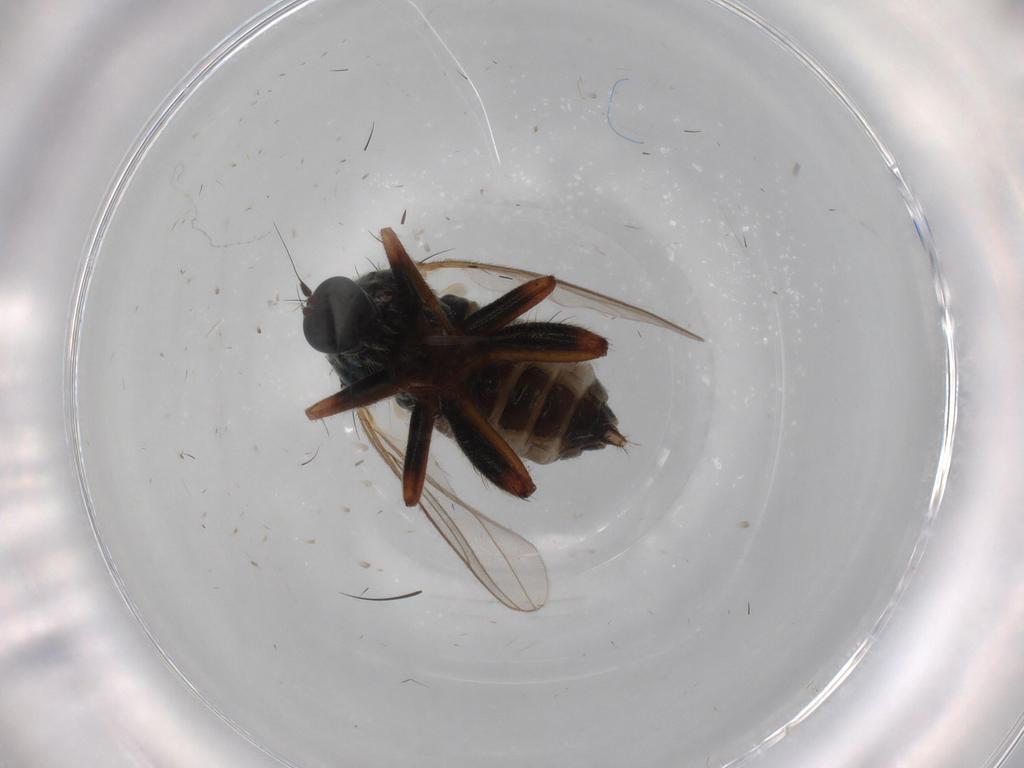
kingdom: Animalia
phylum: Arthropoda
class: Insecta
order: Diptera
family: Hybotidae
